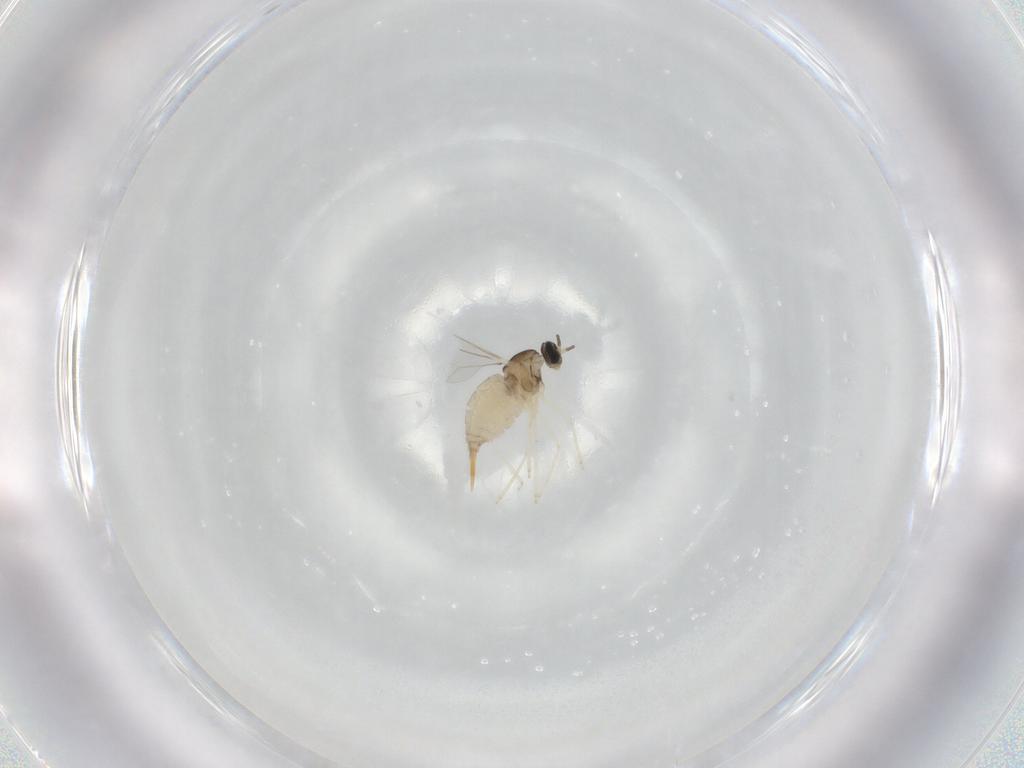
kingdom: Animalia
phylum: Arthropoda
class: Insecta
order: Diptera
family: Cecidomyiidae
